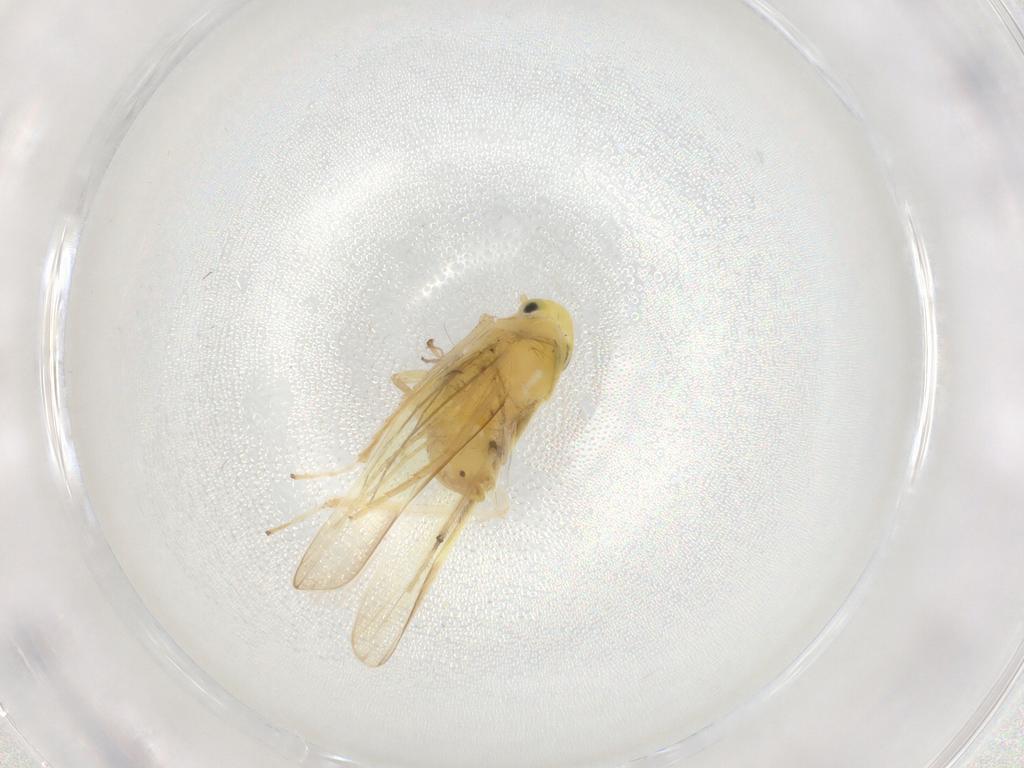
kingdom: Animalia
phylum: Arthropoda
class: Insecta
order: Hemiptera
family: Cicadellidae
